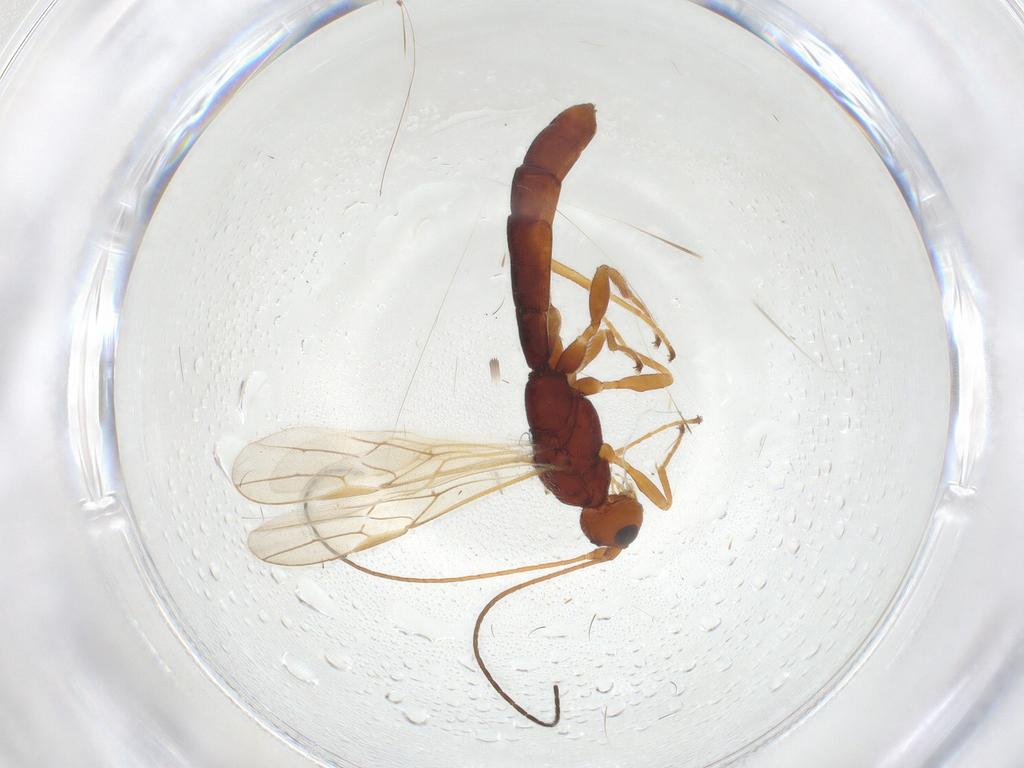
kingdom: Animalia
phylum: Arthropoda
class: Insecta
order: Hymenoptera
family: Braconidae
